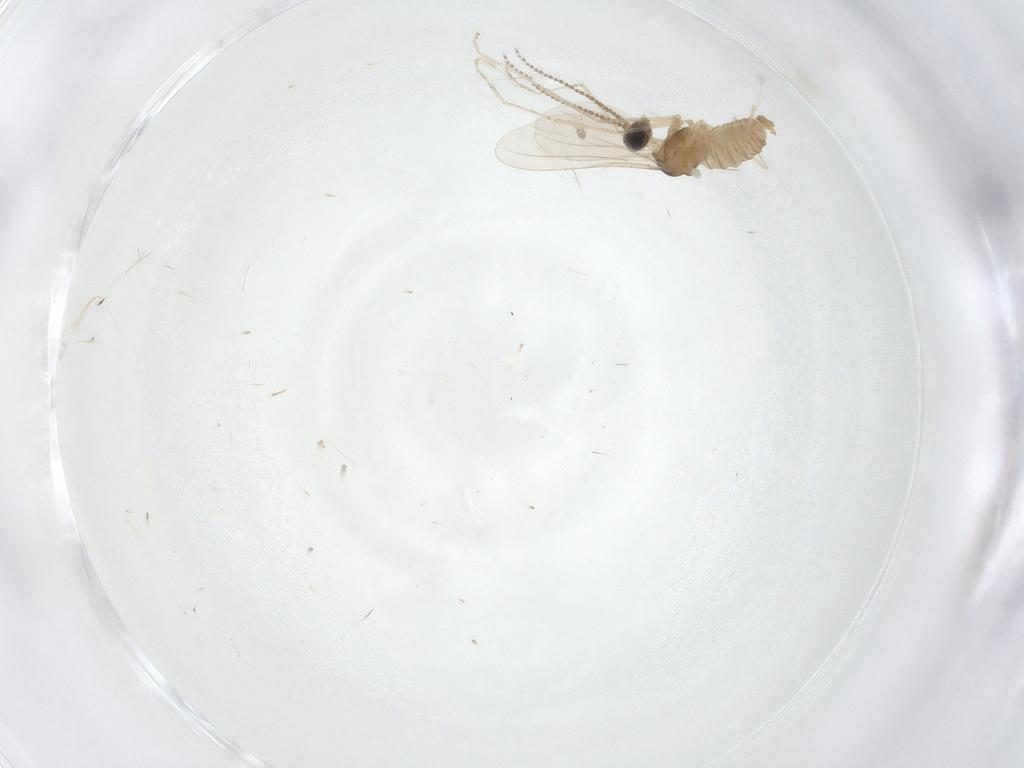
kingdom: Animalia
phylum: Arthropoda
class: Insecta
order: Diptera
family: Cecidomyiidae
